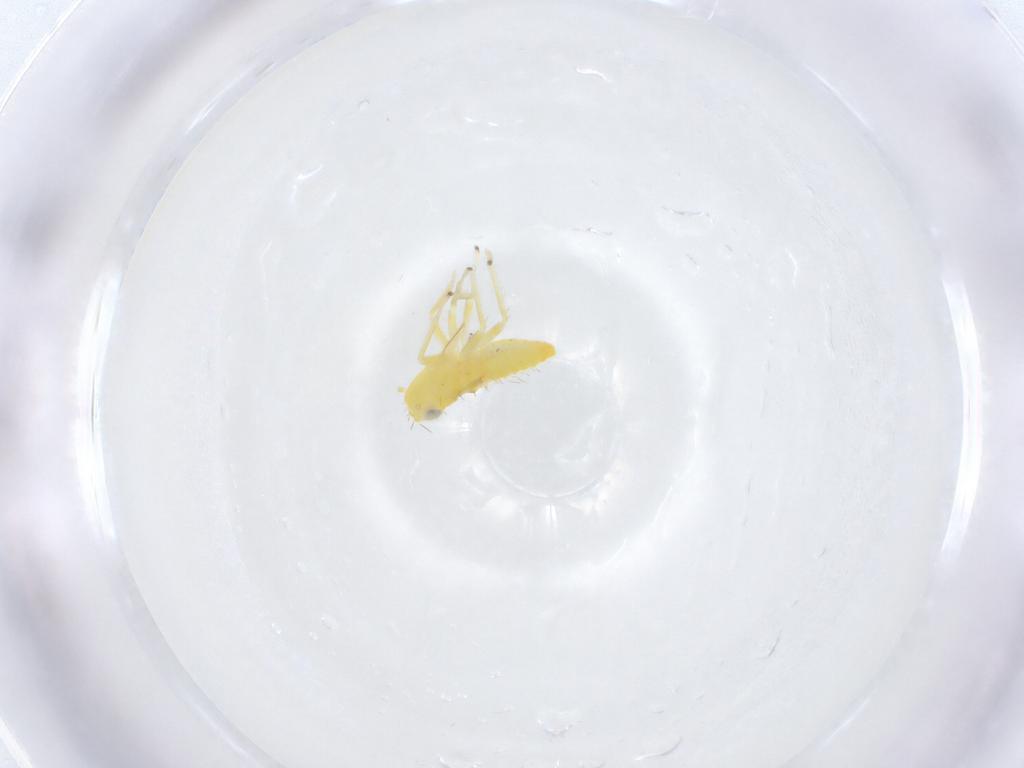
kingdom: Animalia
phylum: Arthropoda
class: Insecta
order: Hemiptera
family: Cicadellidae
